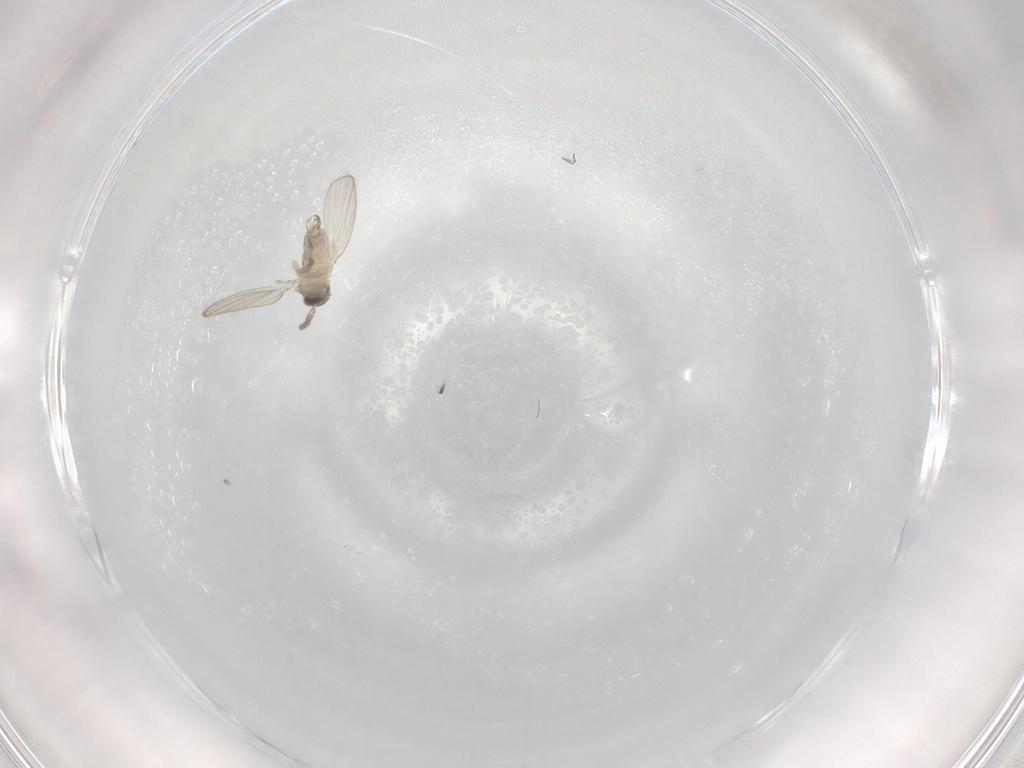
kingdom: Animalia
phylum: Arthropoda
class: Insecta
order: Diptera
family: Psychodidae
